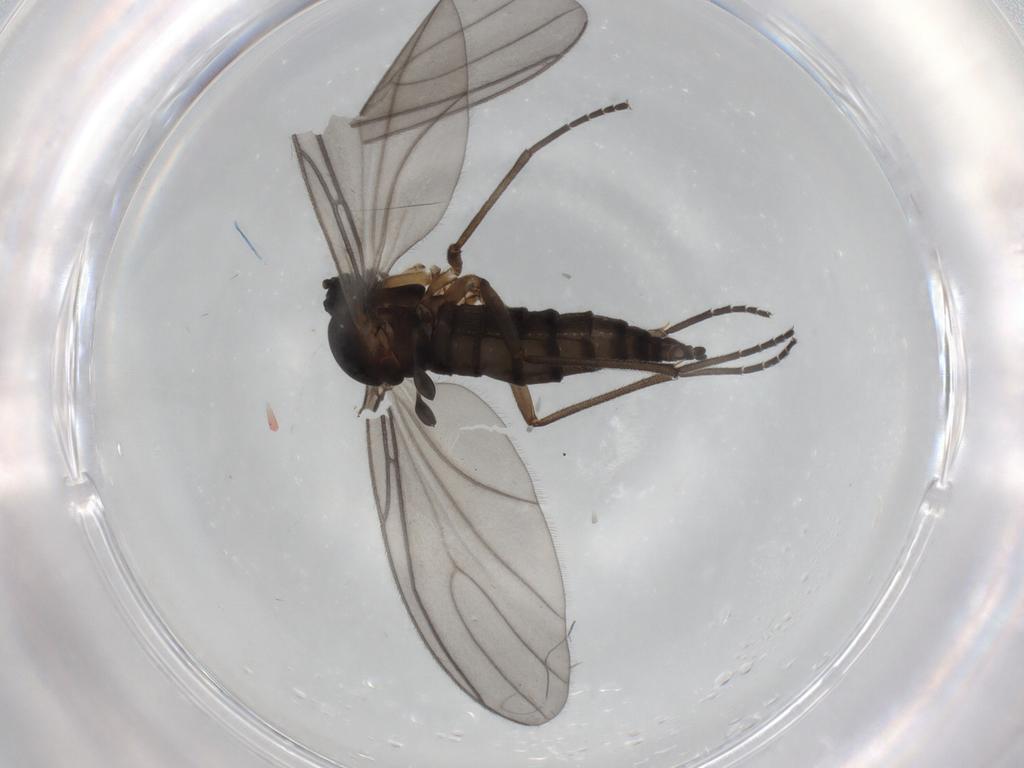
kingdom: Animalia
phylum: Arthropoda
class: Insecta
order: Diptera
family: Sciaridae
